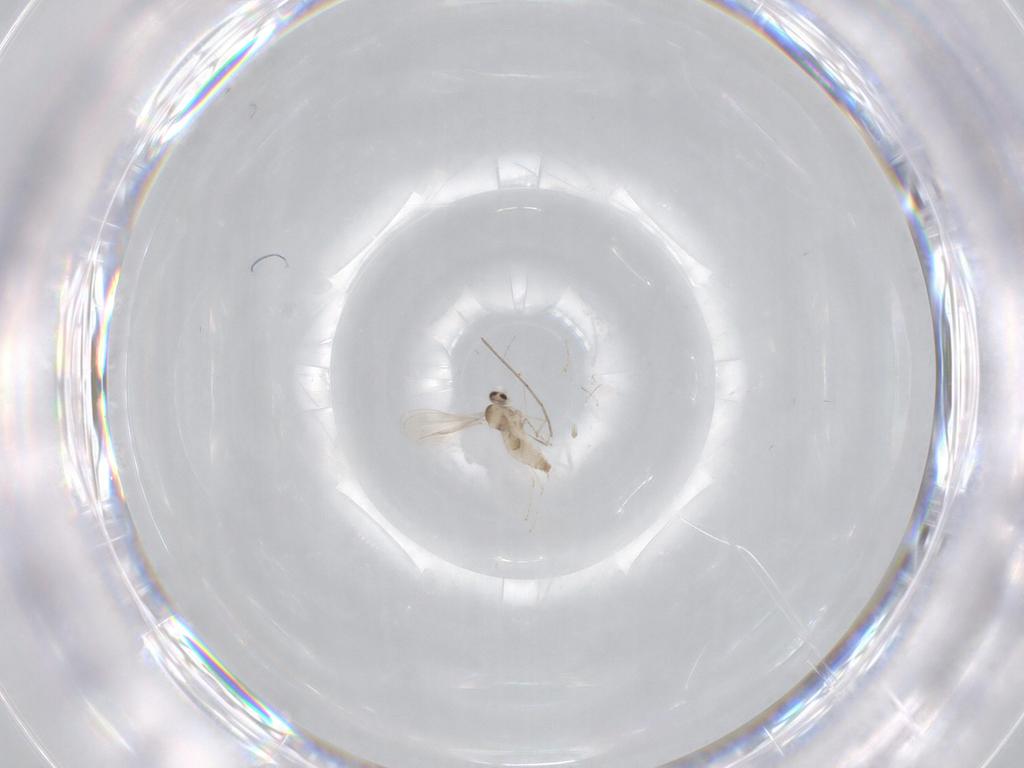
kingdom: Animalia
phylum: Arthropoda
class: Insecta
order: Diptera
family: Cecidomyiidae
